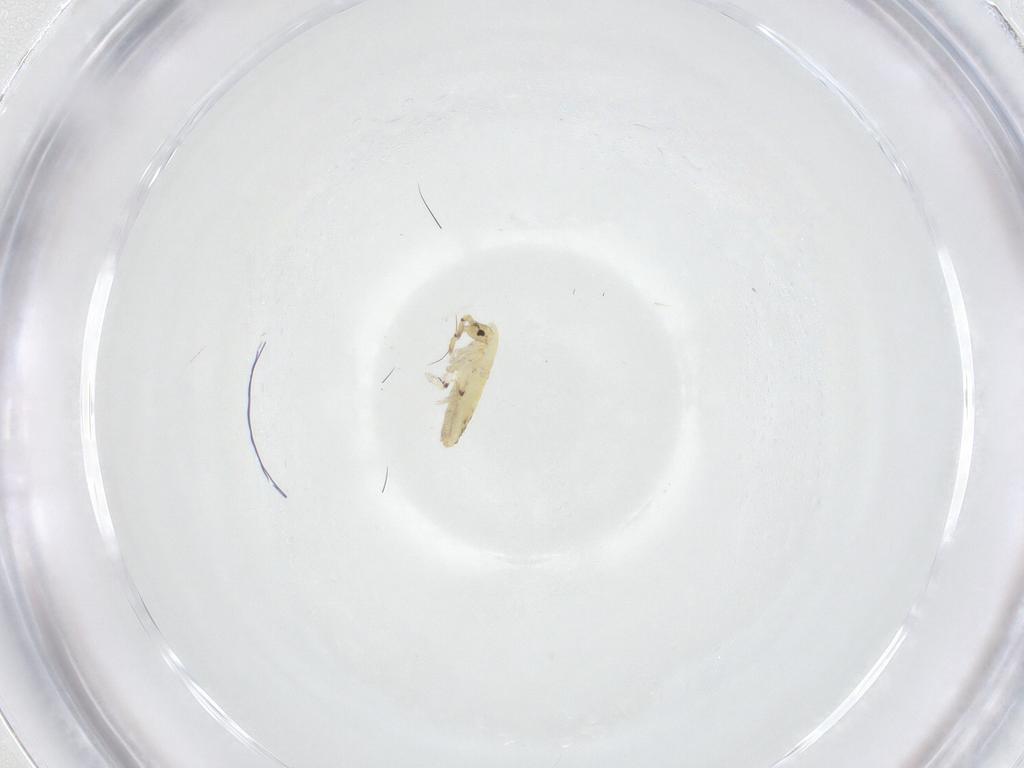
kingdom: Animalia
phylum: Arthropoda
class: Collembola
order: Entomobryomorpha
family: Entomobryidae
